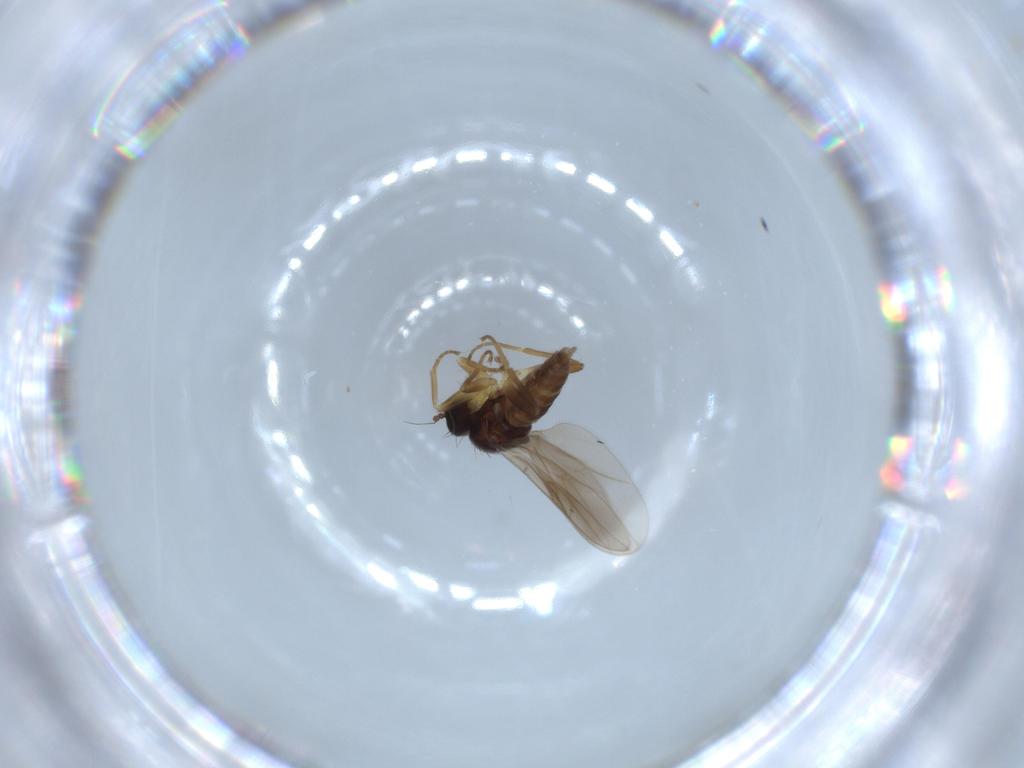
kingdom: Animalia
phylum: Arthropoda
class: Insecta
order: Diptera
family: Hybotidae
